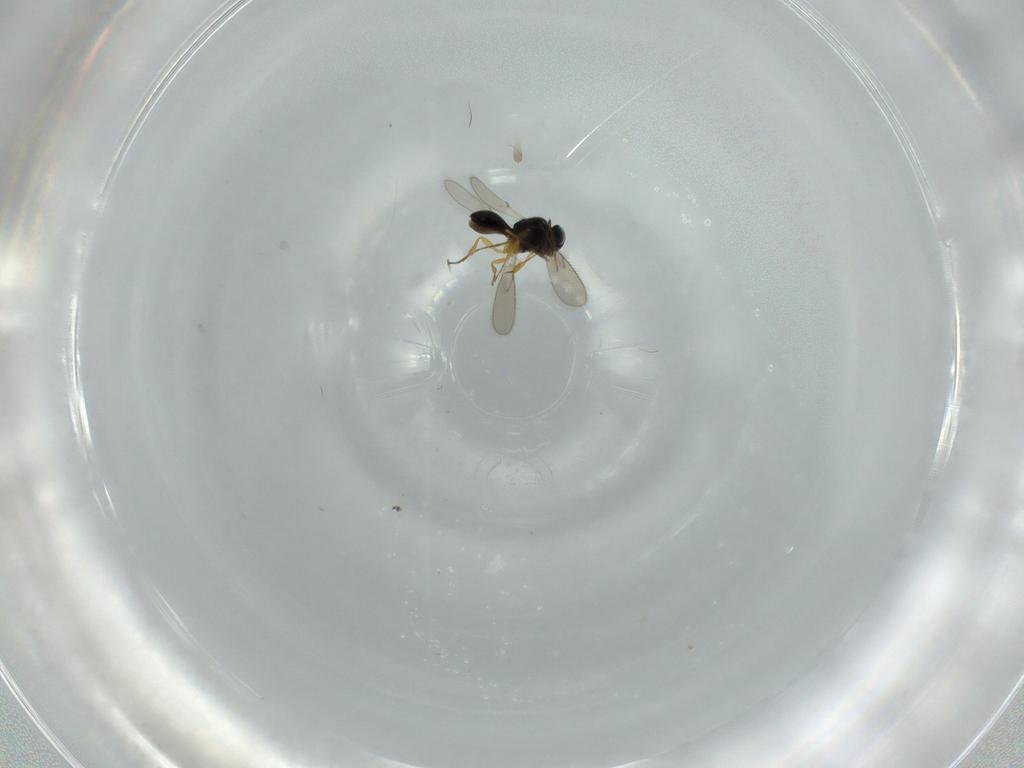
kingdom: Animalia
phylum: Arthropoda
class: Insecta
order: Hymenoptera
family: Scelionidae
